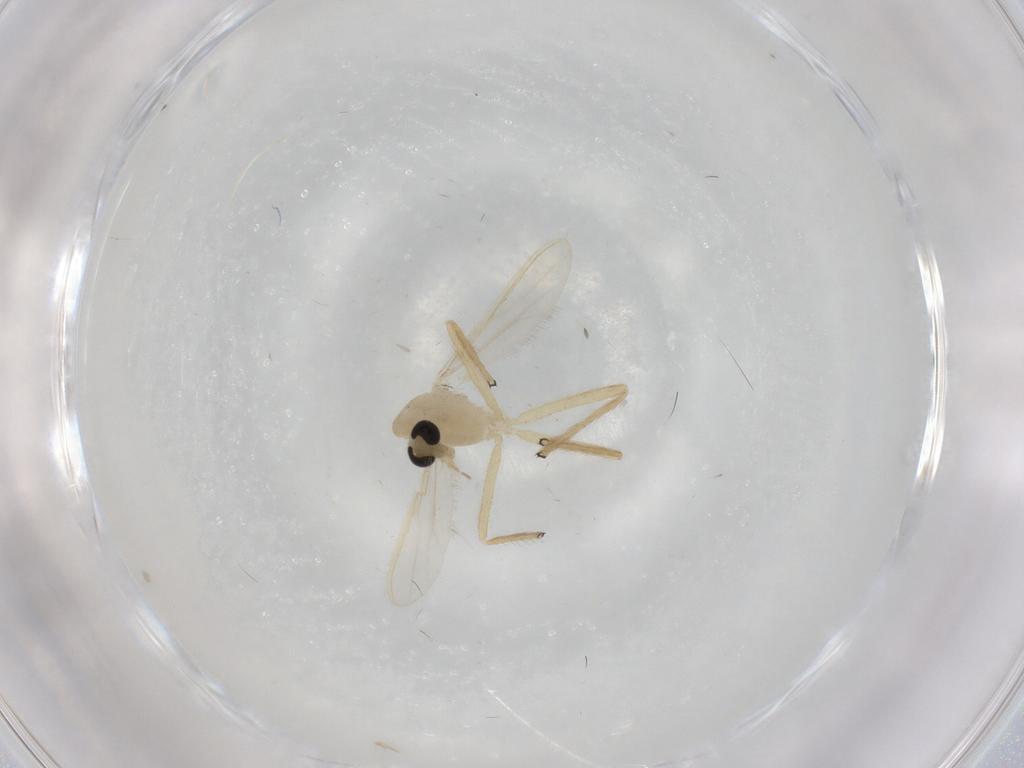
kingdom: Animalia
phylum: Arthropoda
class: Insecta
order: Diptera
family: Chironomidae
